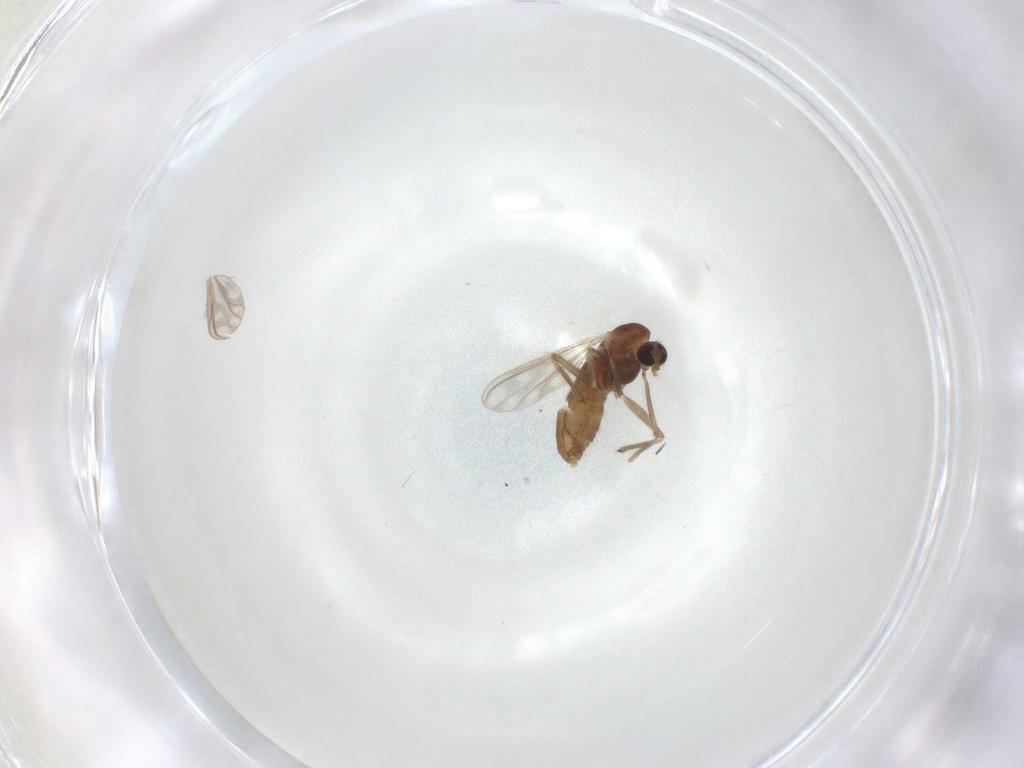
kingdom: Animalia
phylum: Arthropoda
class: Insecta
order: Diptera
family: Chironomidae
